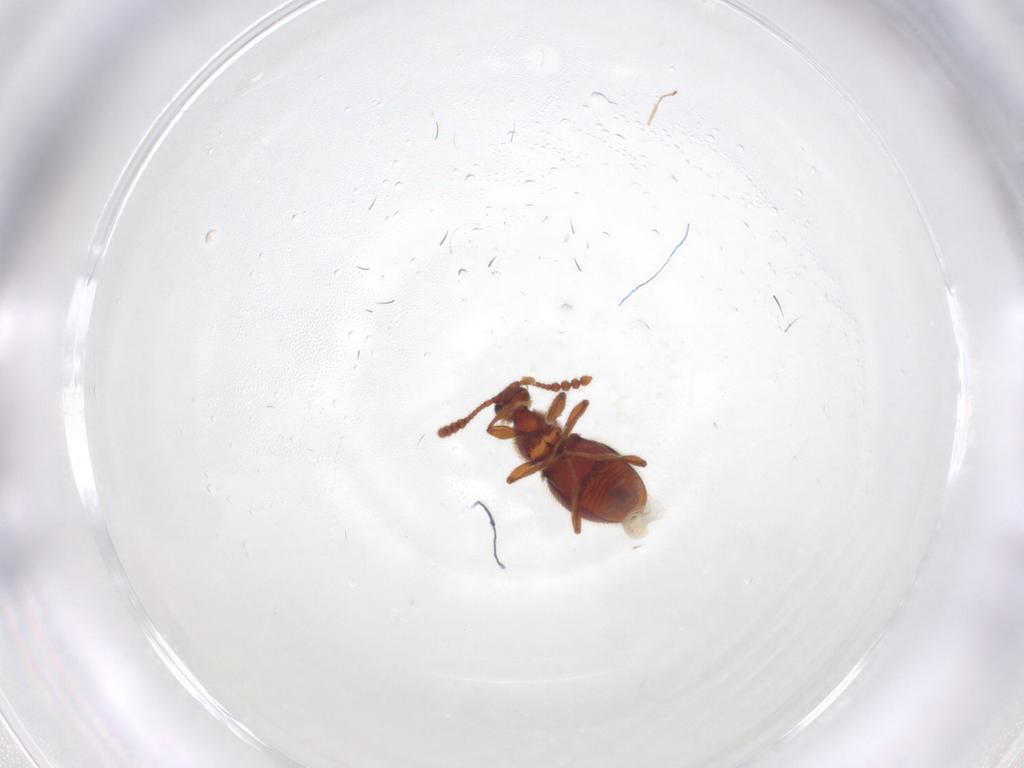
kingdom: Animalia
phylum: Arthropoda
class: Insecta
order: Coleoptera
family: Staphylinidae
